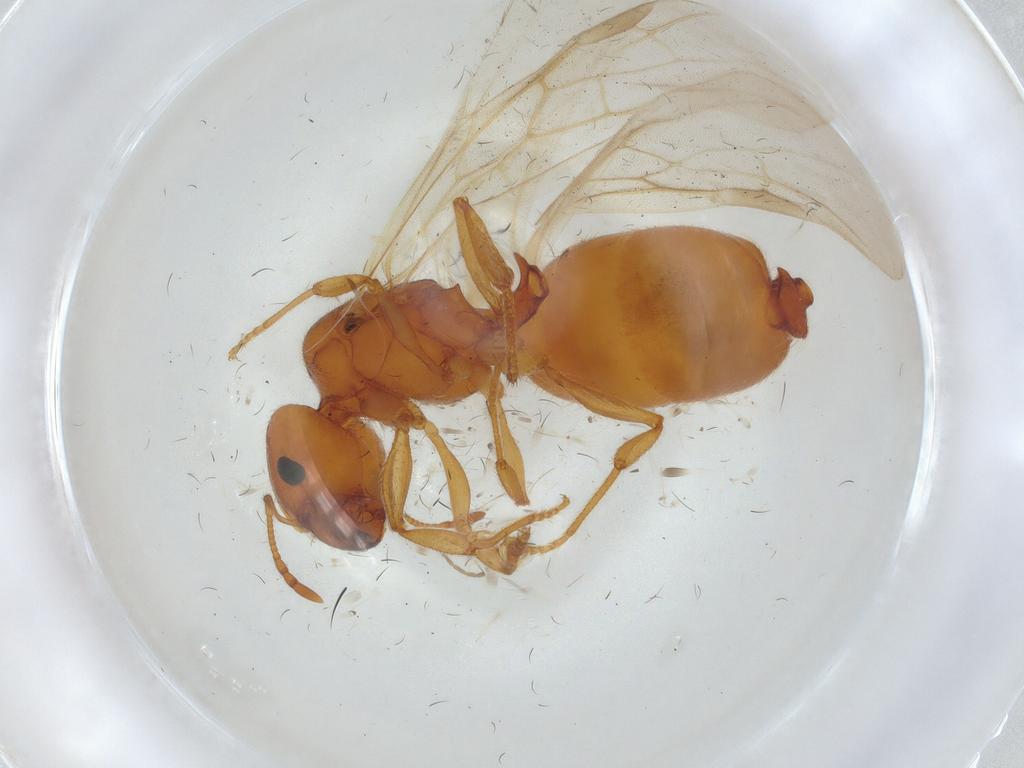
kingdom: Animalia
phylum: Arthropoda
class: Insecta
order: Hymenoptera
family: Formicidae
